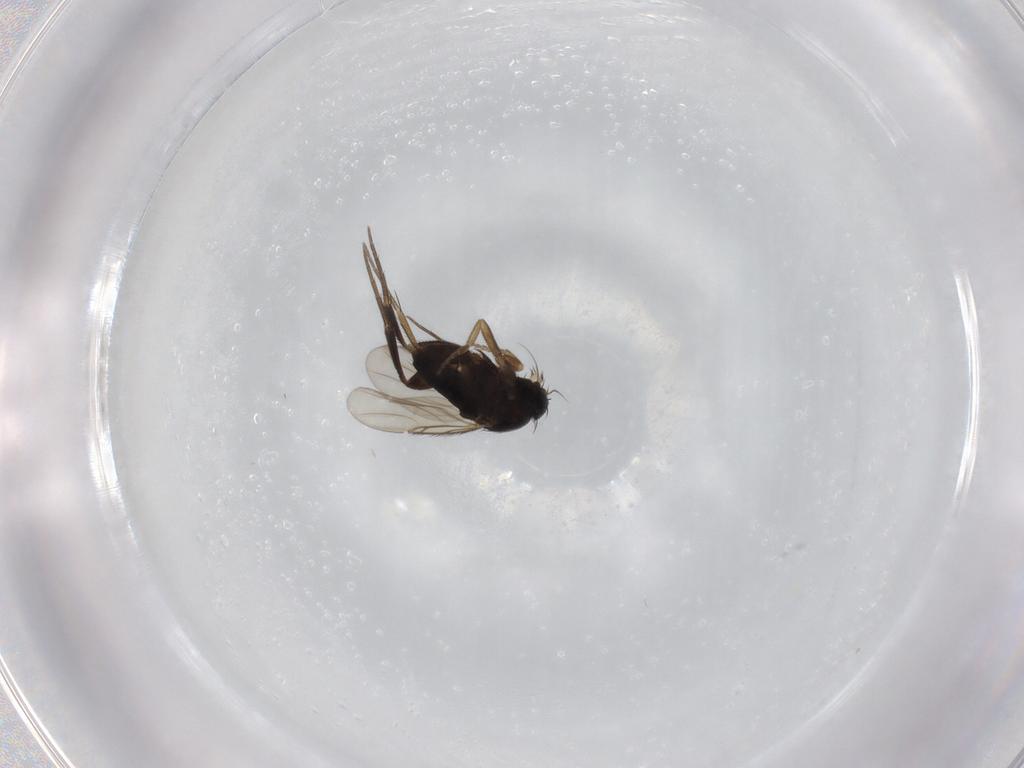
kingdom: Animalia
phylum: Arthropoda
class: Insecta
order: Diptera
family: Phoridae
